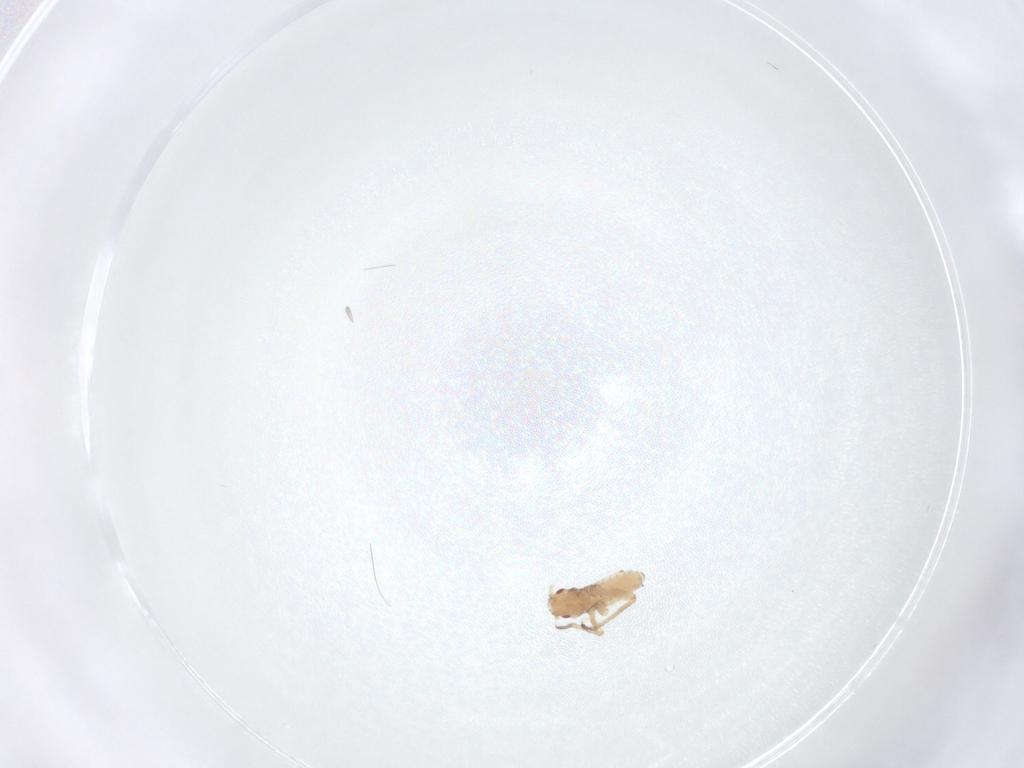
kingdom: Animalia
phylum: Arthropoda
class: Insecta
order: Hemiptera
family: Aphididae
